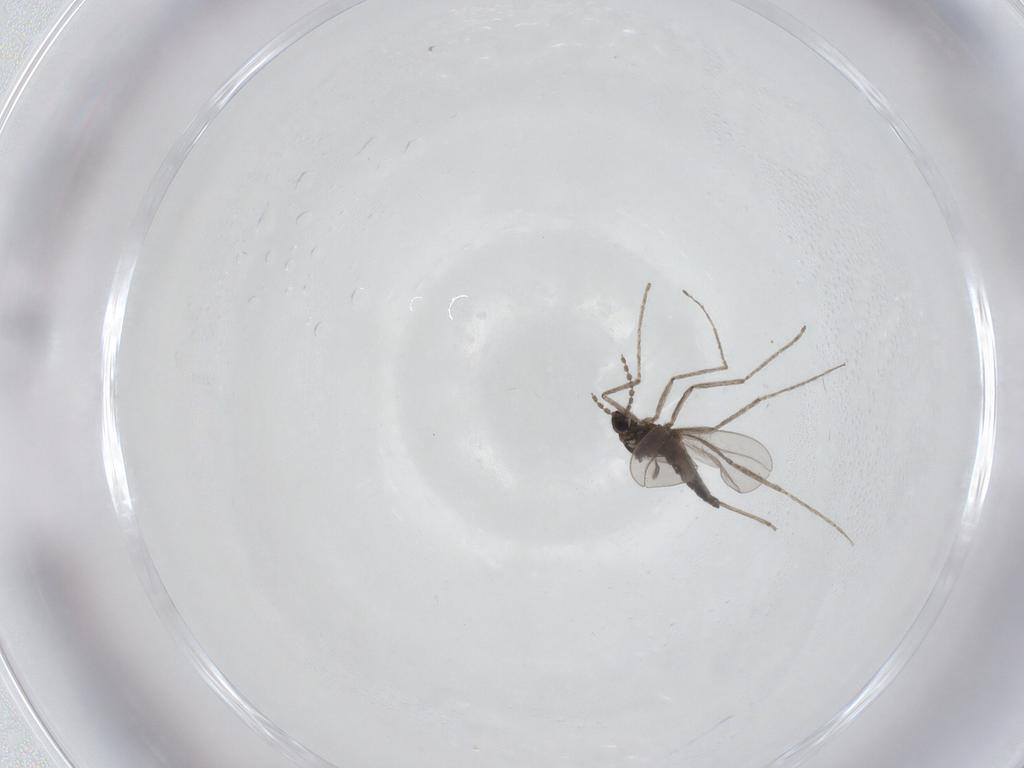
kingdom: Animalia
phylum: Arthropoda
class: Insecta
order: Diptera
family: Cecidomyiidae
